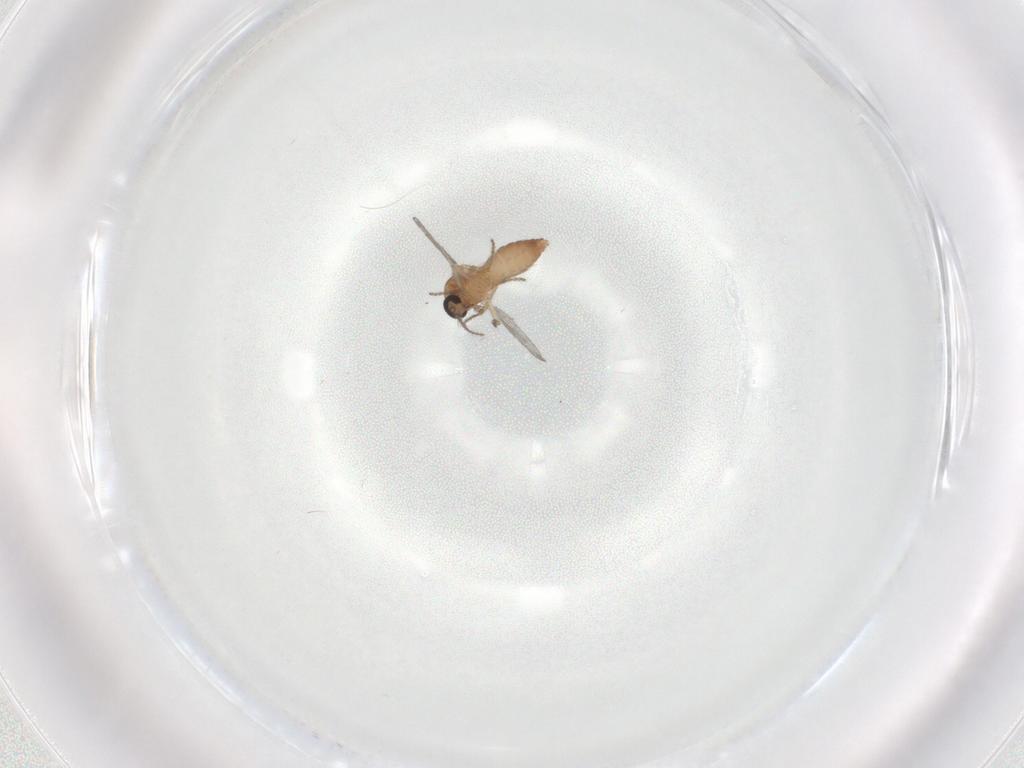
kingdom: Animalia
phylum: Arthropoda
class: Insecta
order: Diptera
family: Ceratopogonidae
